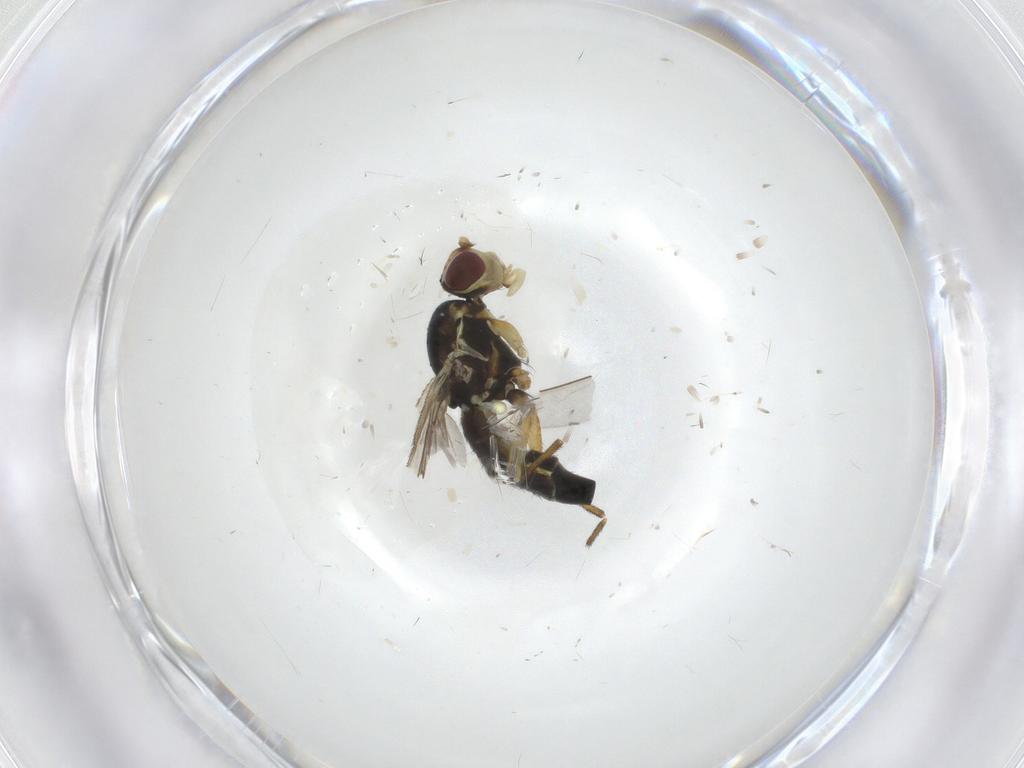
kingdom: Animalia
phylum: Arthropoda
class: Insecta
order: Diptera
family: Agromyzidae
